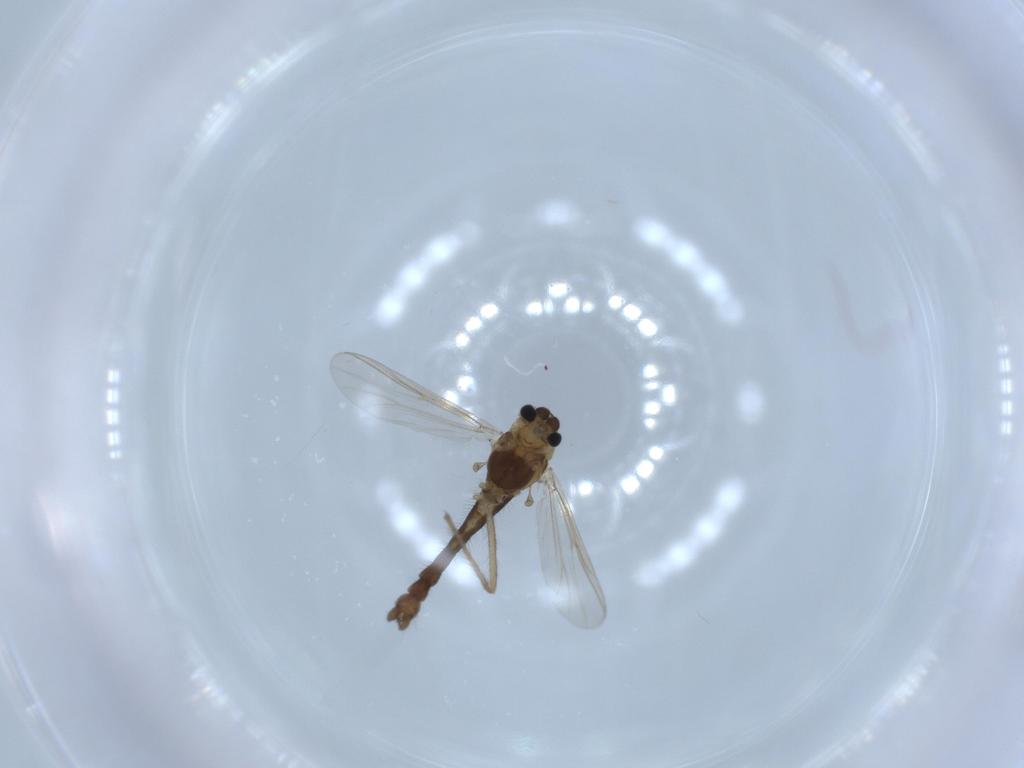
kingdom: Animalia
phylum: Arthropoda
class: Insecta
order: Diptera
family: Chironomidae
